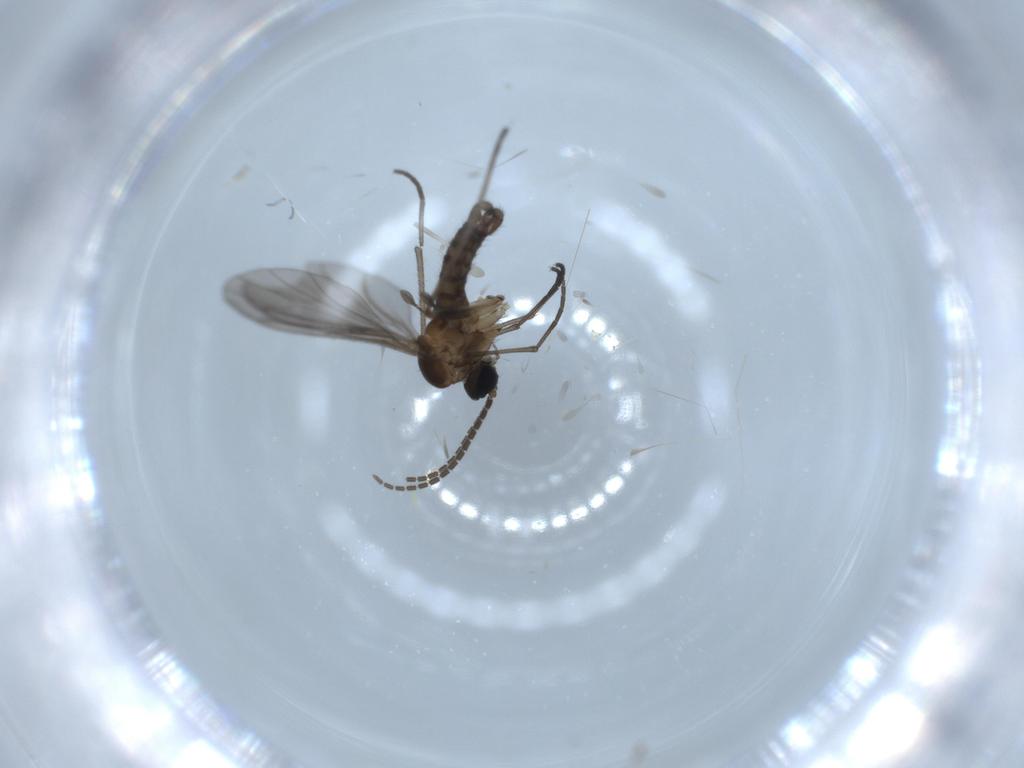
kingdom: Animalia
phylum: Arthropoda
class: Insecta
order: Diptera
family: Sciaridae
